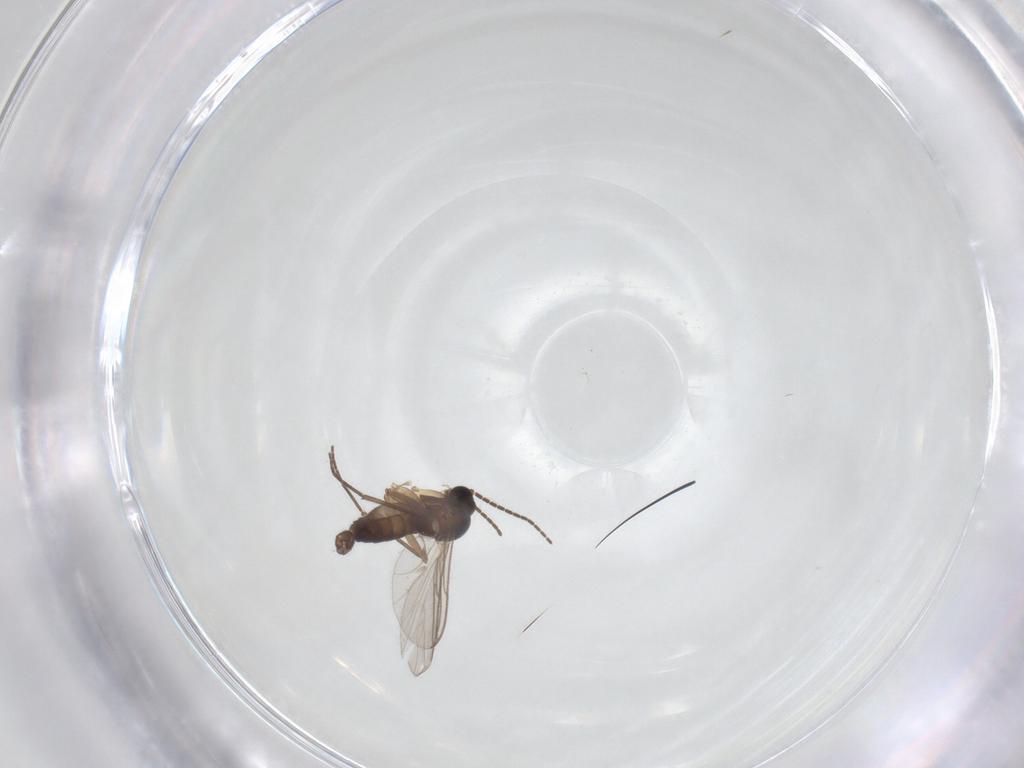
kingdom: Animalia
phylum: Arthropoda
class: Insecta
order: Diptera
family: Sciaridae
